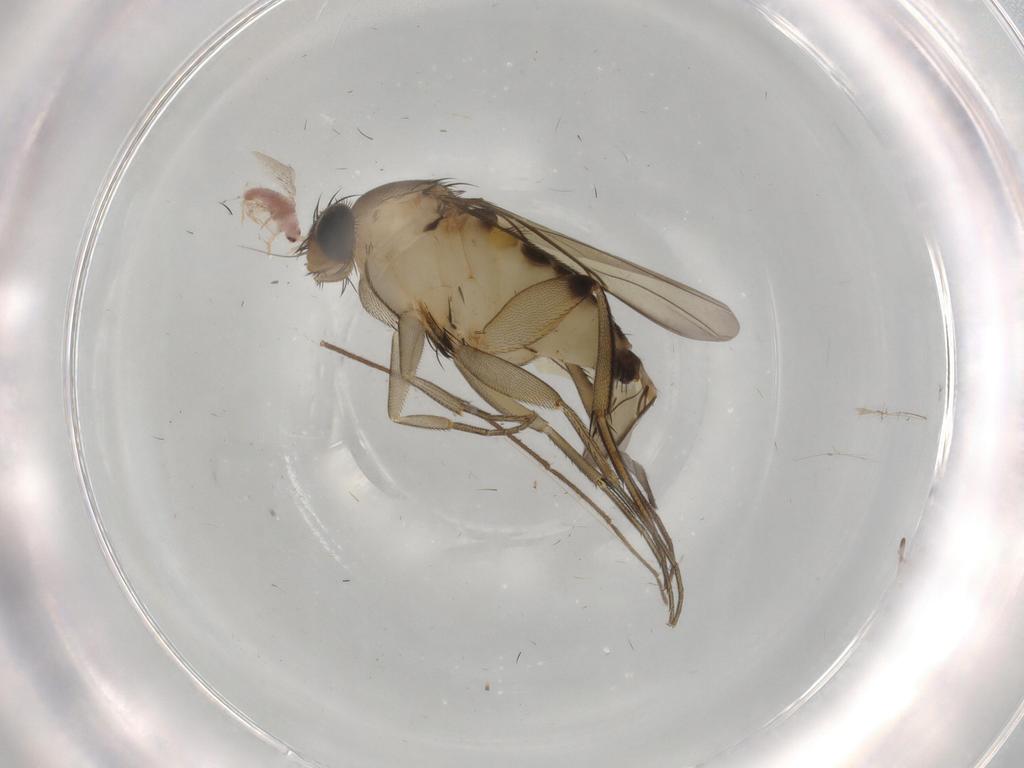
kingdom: Animalia
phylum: Arthropoda
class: Insecta
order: Diptera
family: Phoridae
